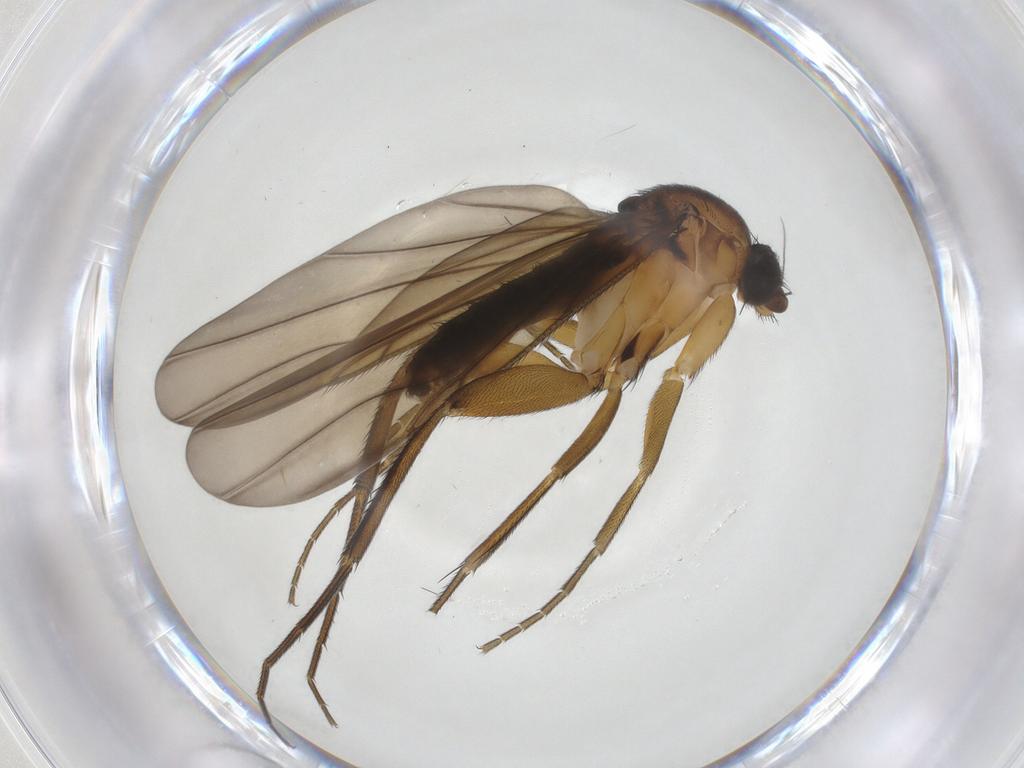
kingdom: Animalia
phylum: Arthropoda
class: Insecta
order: Diptera
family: Phoridae
